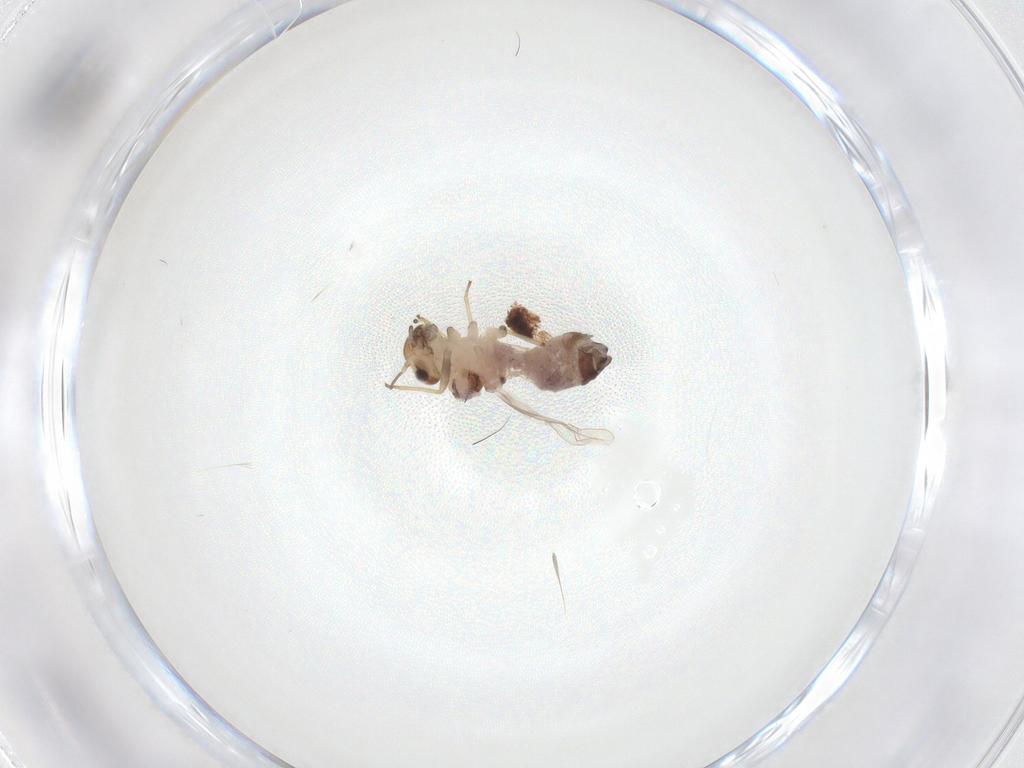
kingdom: Animalia
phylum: Arthropoda
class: Insecta
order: Psocodea
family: Ectopsocidae
